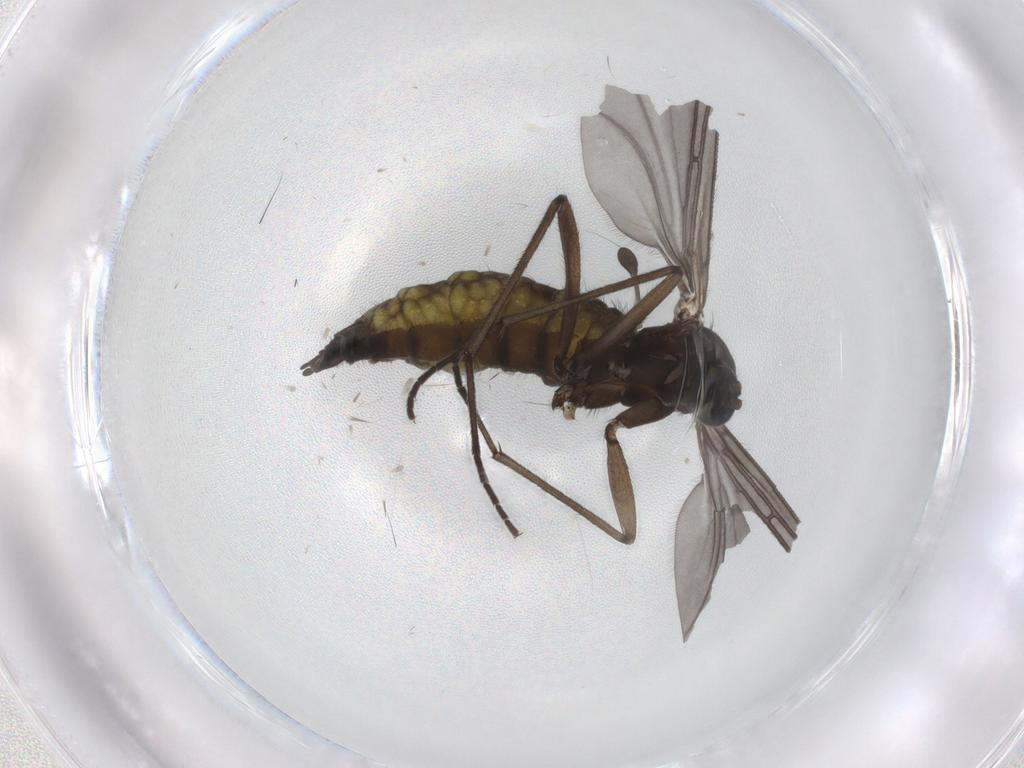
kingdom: Animalia
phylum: Arthropoda
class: Insecta
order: Diptera
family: Sciaridae
